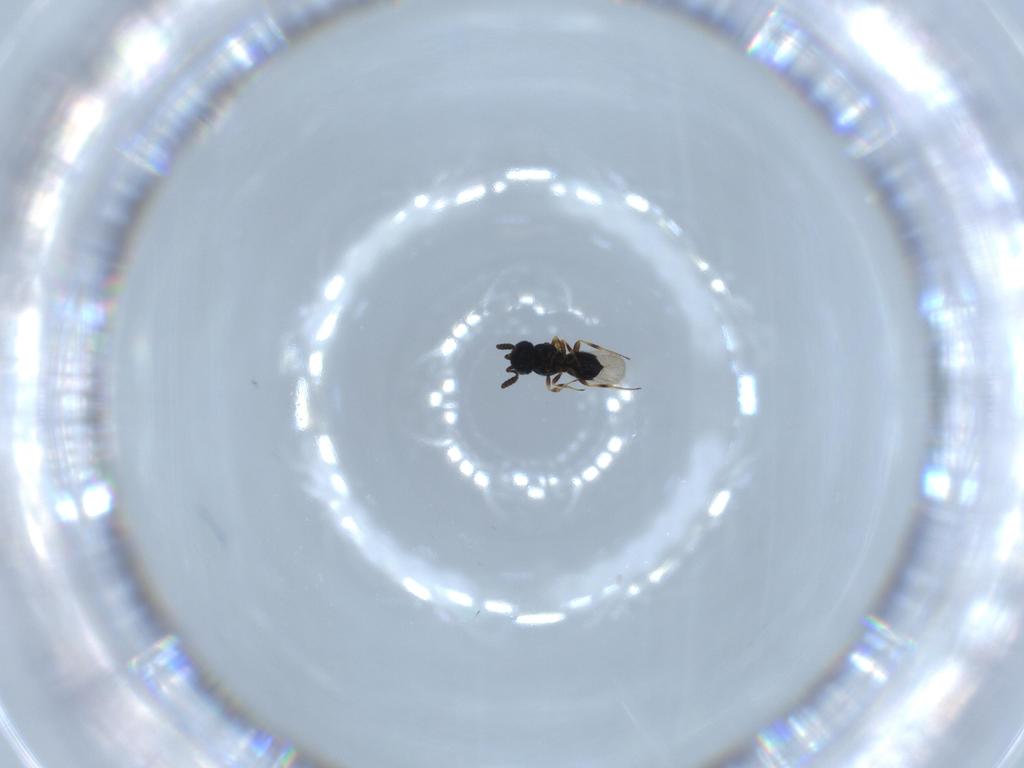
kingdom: Animalia
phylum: Arthropoda
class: Insecta
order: Hymenoptera
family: Scelionidae
